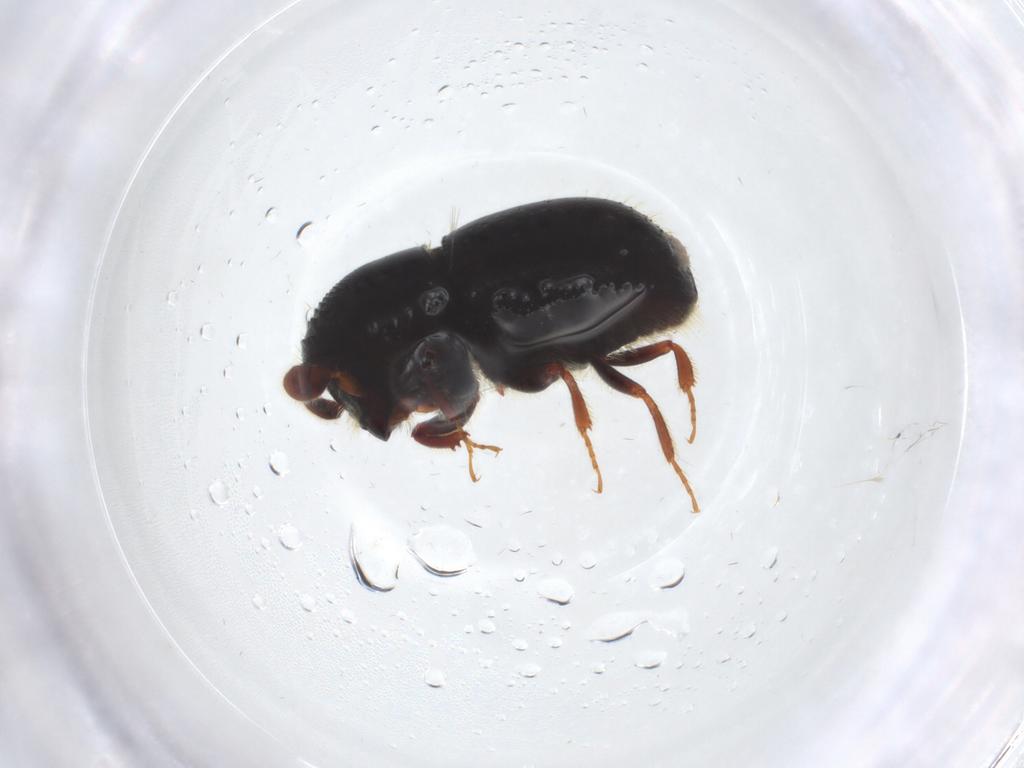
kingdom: Animalia
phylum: Arthropoda
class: Insecta
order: Coleoptera
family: Curculionidae
